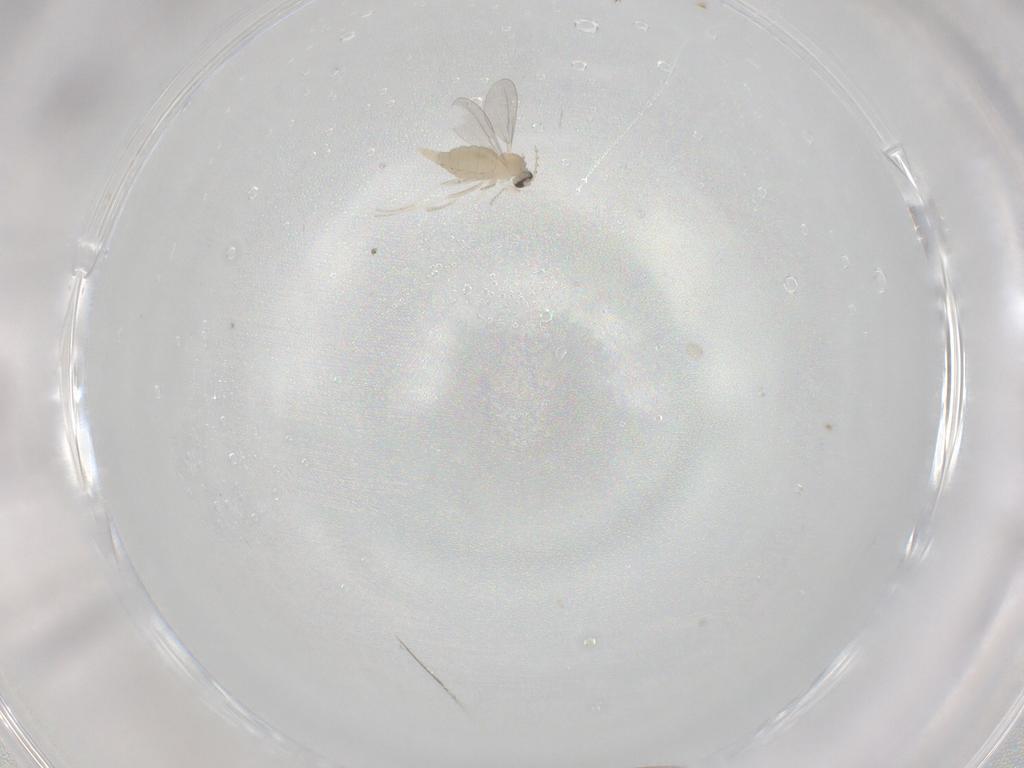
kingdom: Animalia
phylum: Arthropoda
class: Insecta
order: Diptera
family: Cecidomyiidae
